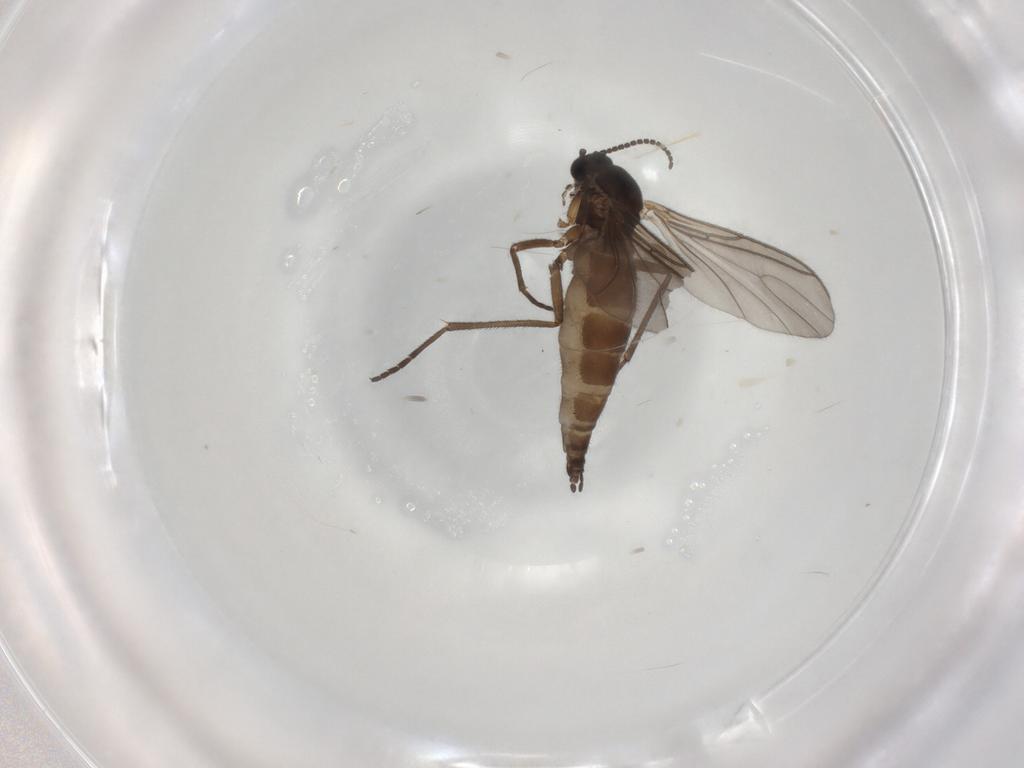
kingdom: Animalia
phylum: Arthropoda
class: Insecta
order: Diptera
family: Sciaridae
